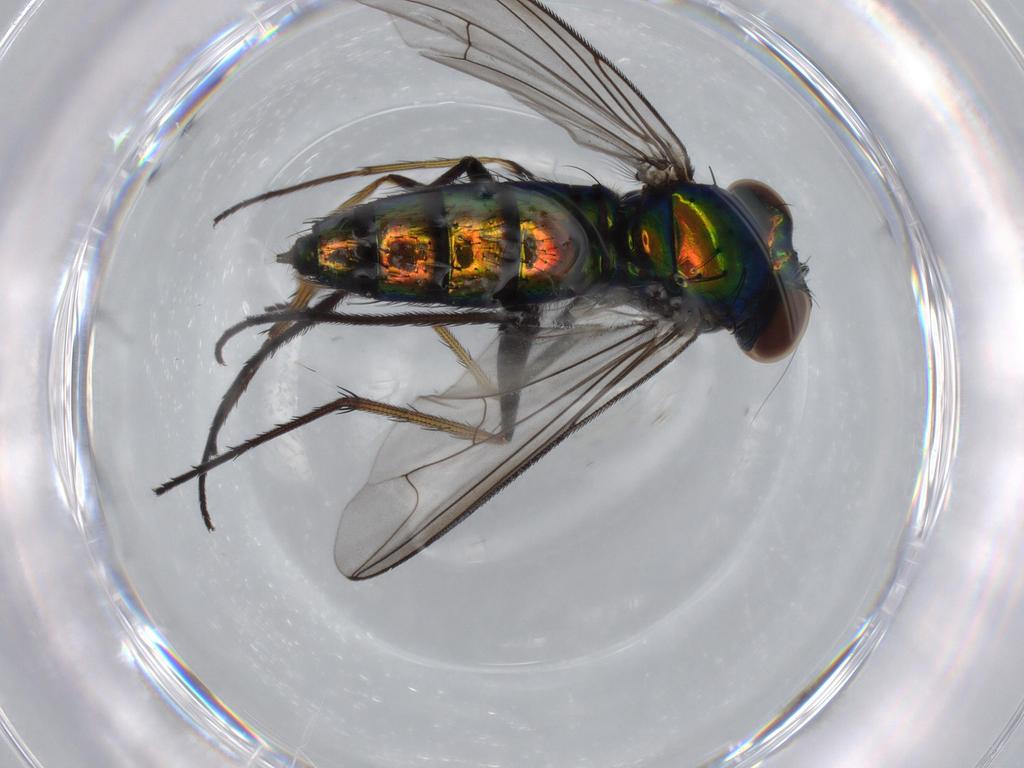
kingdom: Animalia
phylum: Arthropoda
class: Insecta
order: Diptera
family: Dolichopodidae
